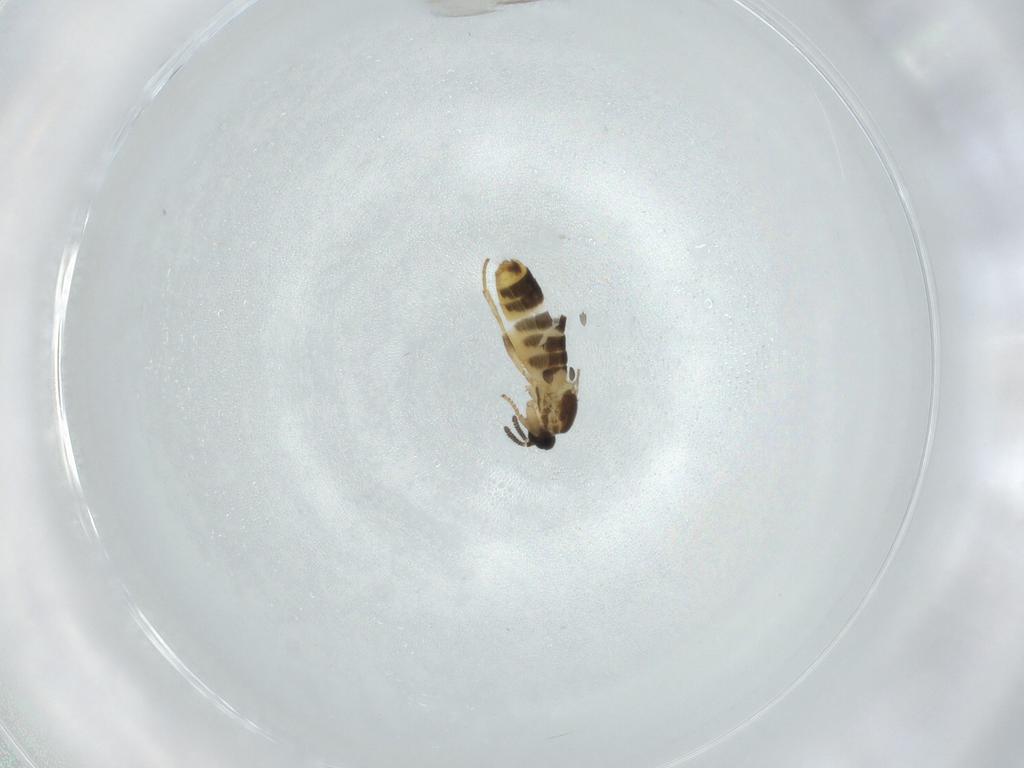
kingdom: Animalia
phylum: Arthropoda
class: Insecta
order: Diptera
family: Scatopsidae
